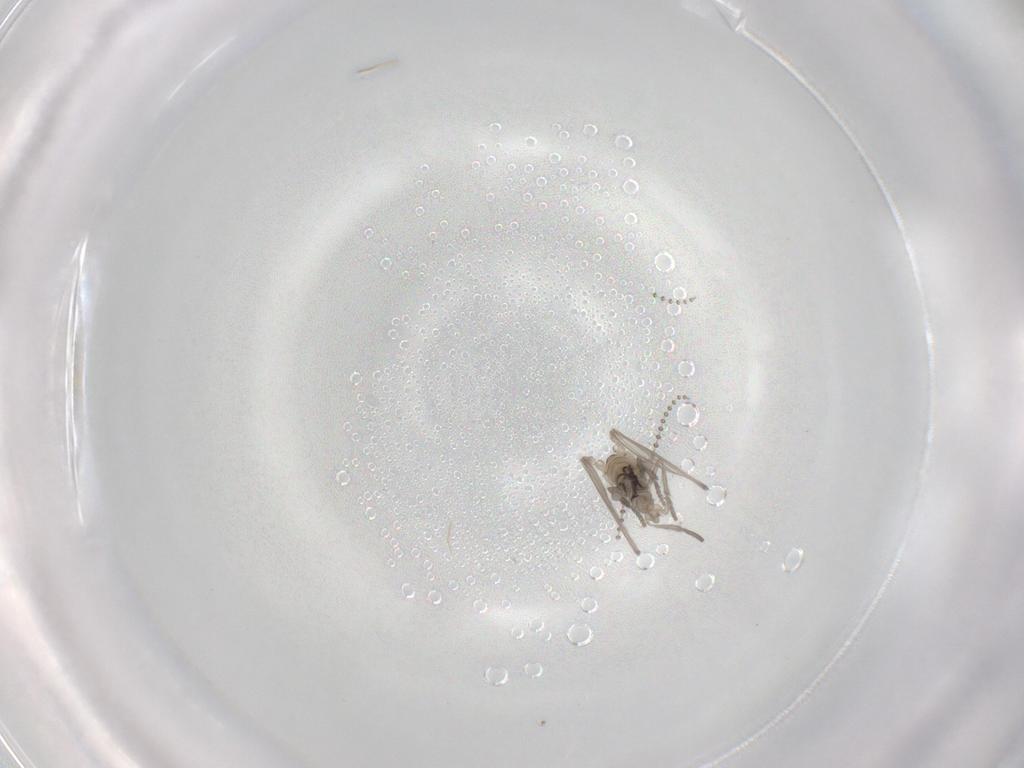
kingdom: Animalia
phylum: Arthropoda
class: Insecta
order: Diptera
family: Psychodidae
